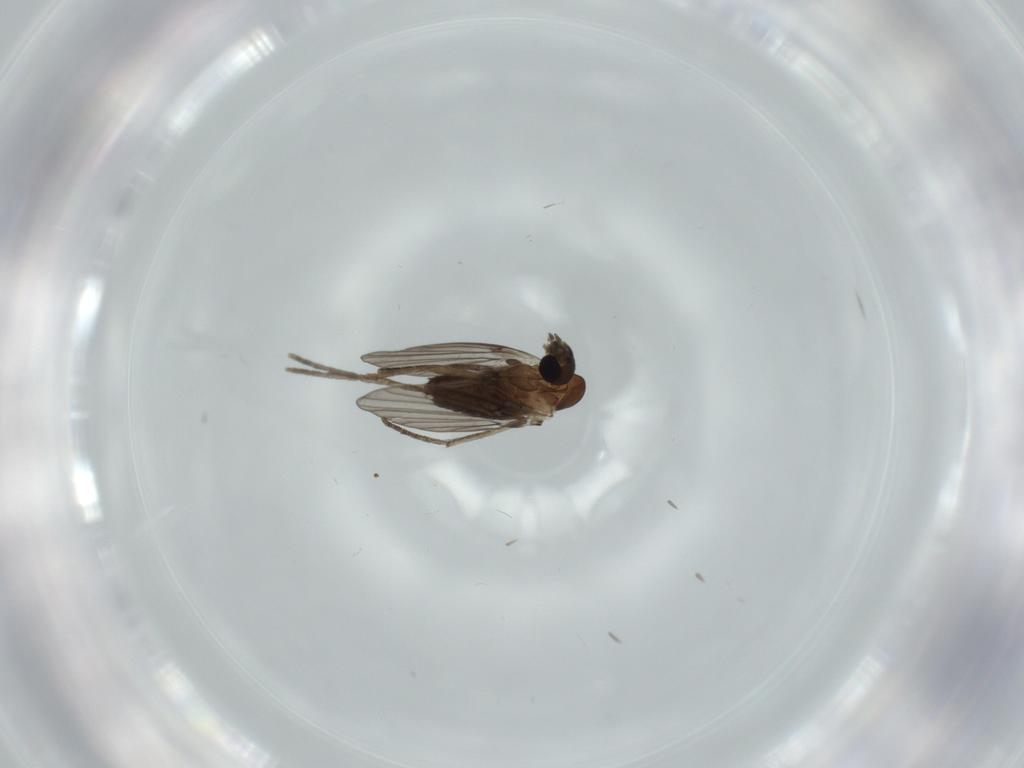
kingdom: Animalia
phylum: Arthropoda
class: Insecta
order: Diptera
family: Psychodidae
